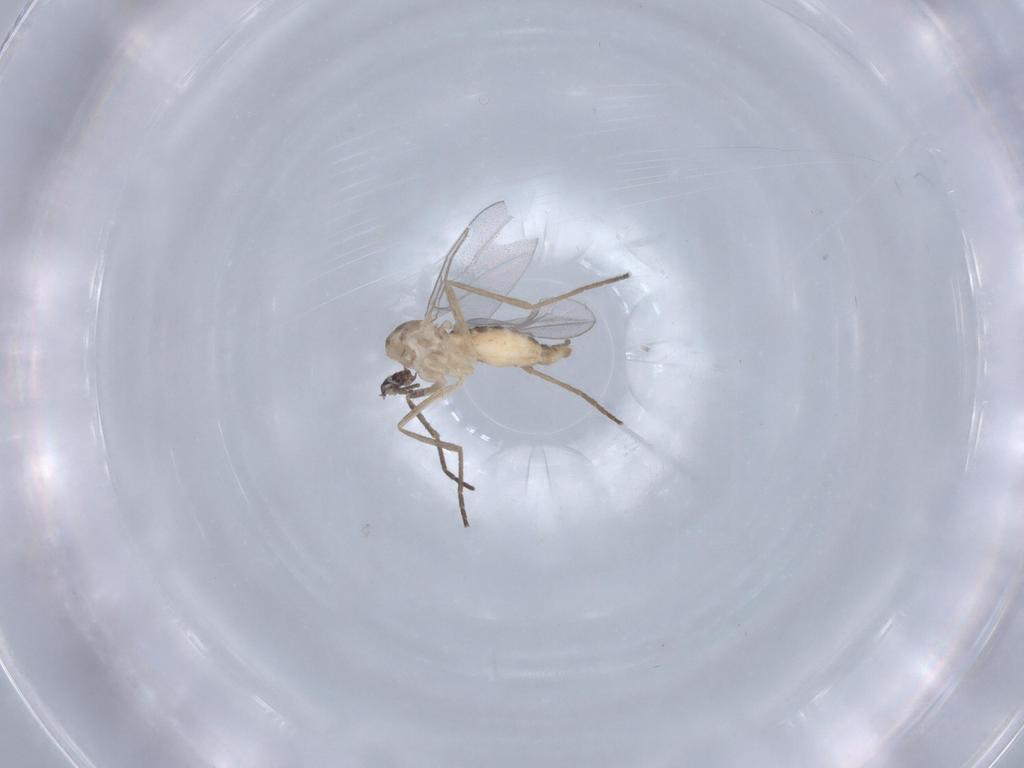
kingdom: Animalia
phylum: Arthropoda
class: Insecta
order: Diptera
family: Cecidomyiidae
